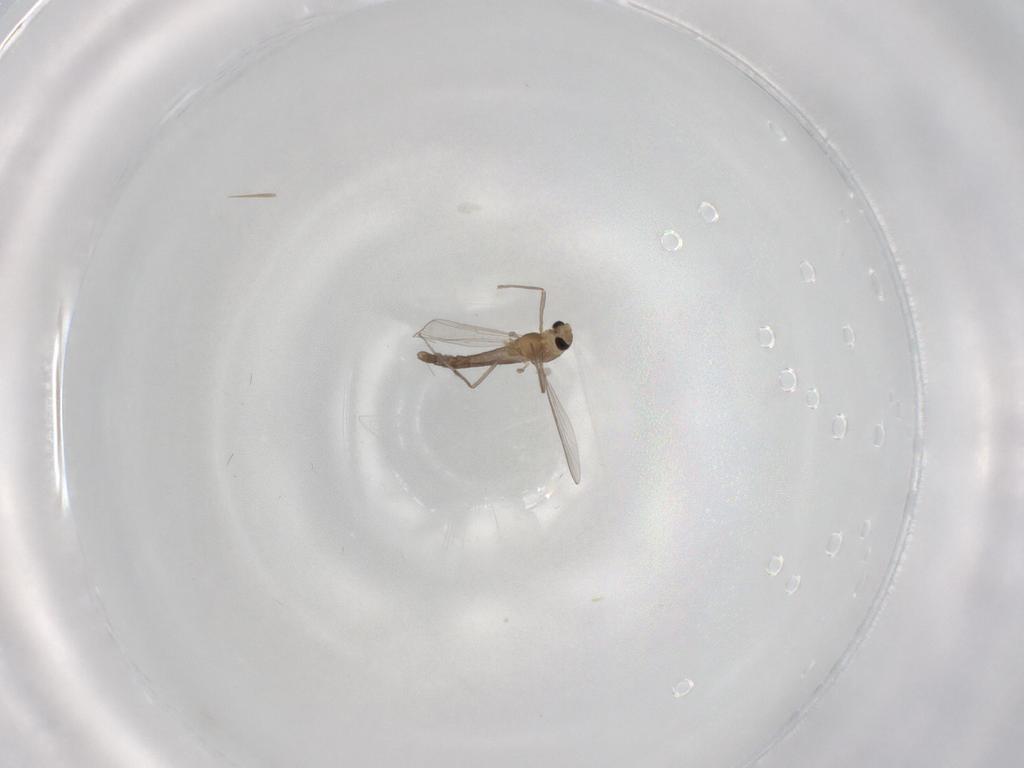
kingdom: Animalia
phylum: Arthropoda
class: Insecta
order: Diptera
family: Chironomidae
